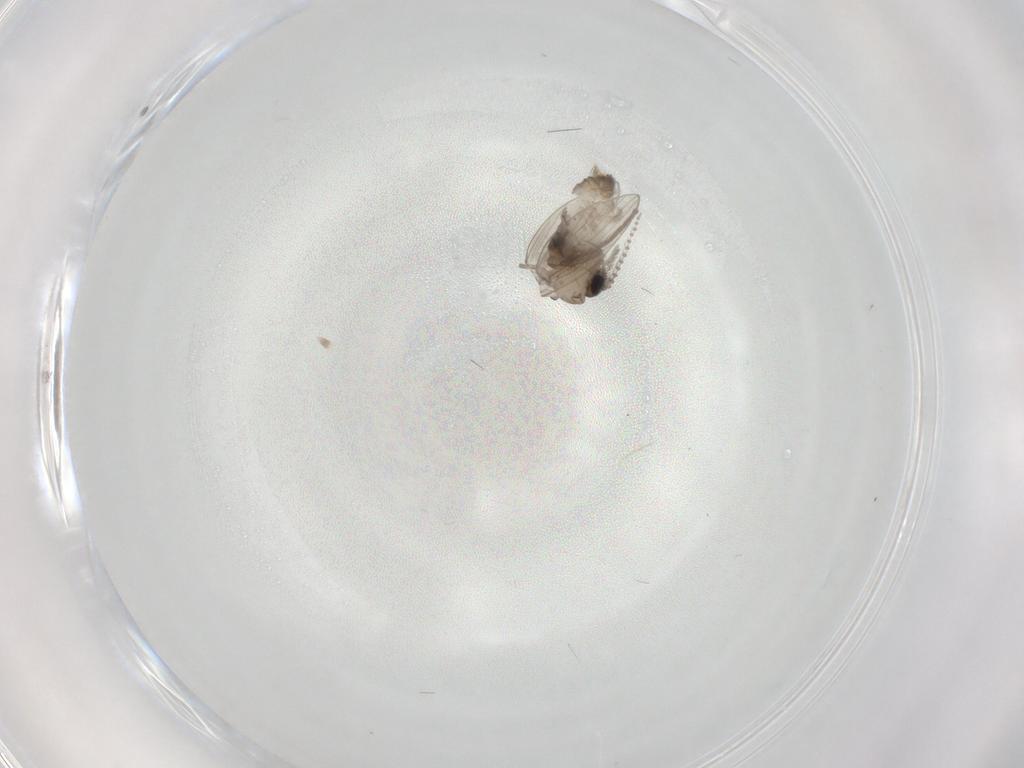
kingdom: Animalia
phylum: Arthropoda
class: Insecta
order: Diptera
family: Psychodidae
